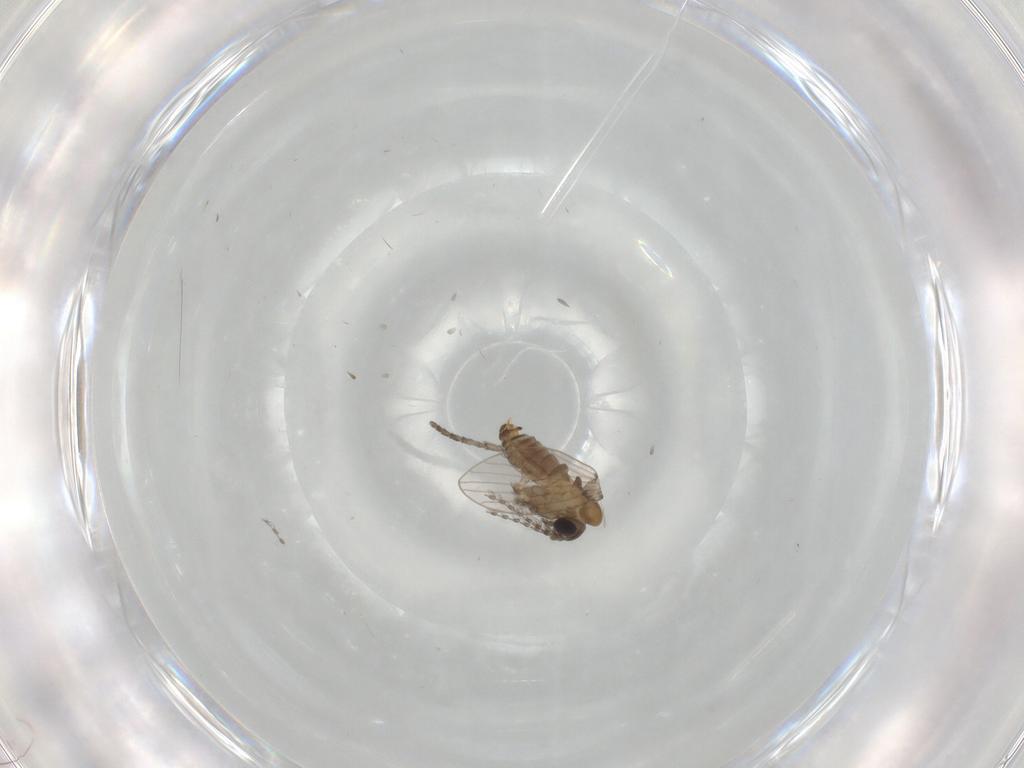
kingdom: Animalia
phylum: Arthropoda
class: Insecta
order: Diptera
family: Psychodidae
